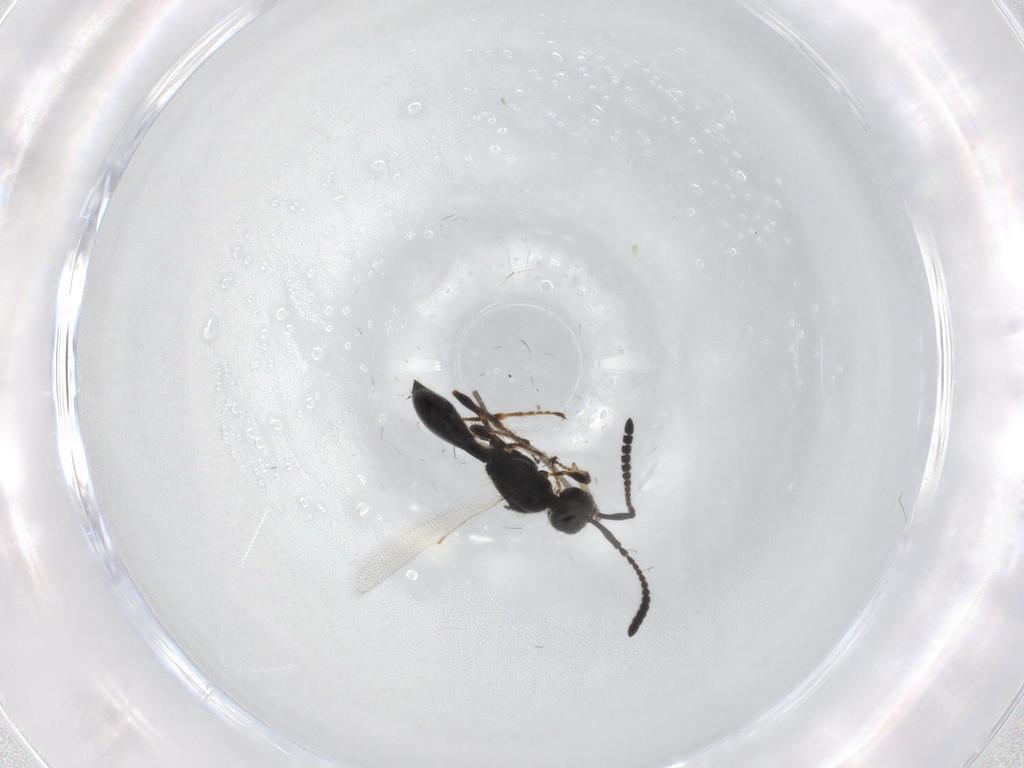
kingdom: Animalia
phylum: Arthropoda
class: Insecta
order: Hymenoptera
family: Diapriidae
